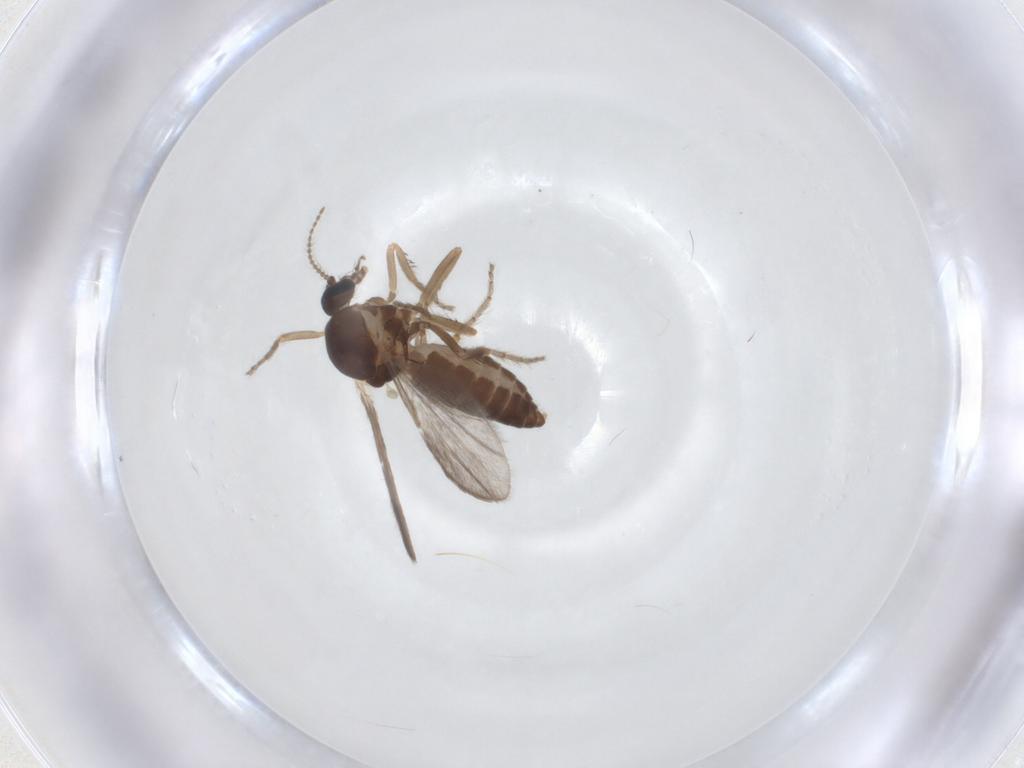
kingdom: Animalia
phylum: Arthropoda
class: Insecta
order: Diptera
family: Ceratopogonidae
